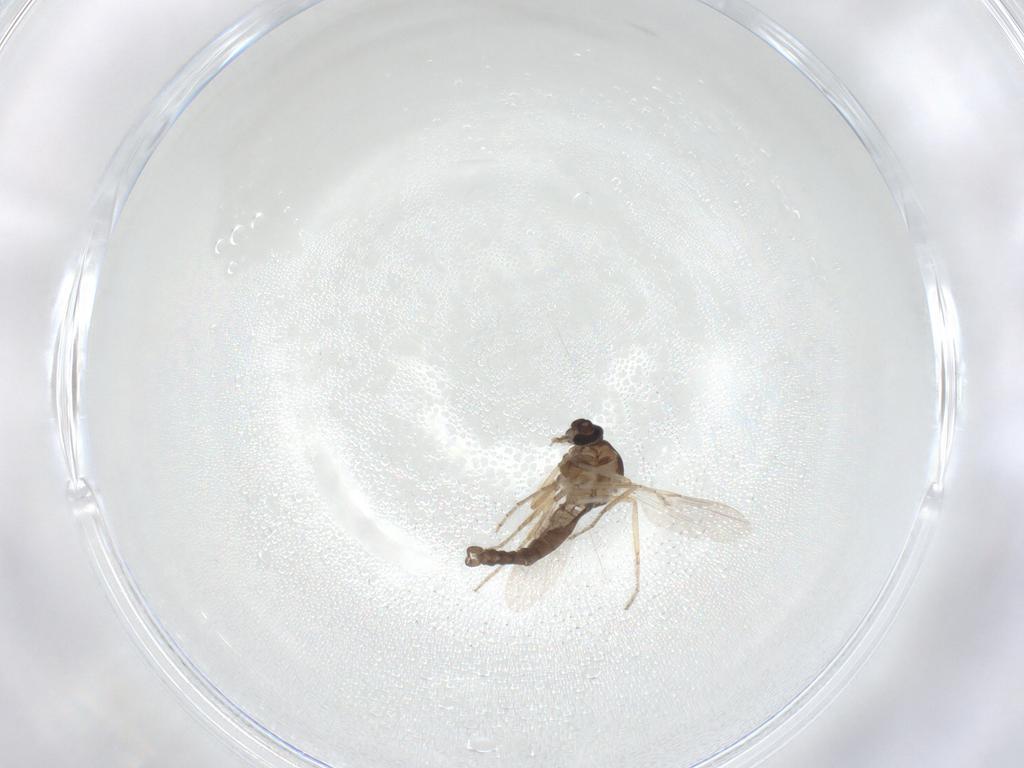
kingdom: Animalia
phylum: Arthropoda
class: Insecta
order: Diptera
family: Ceratopogonidae
